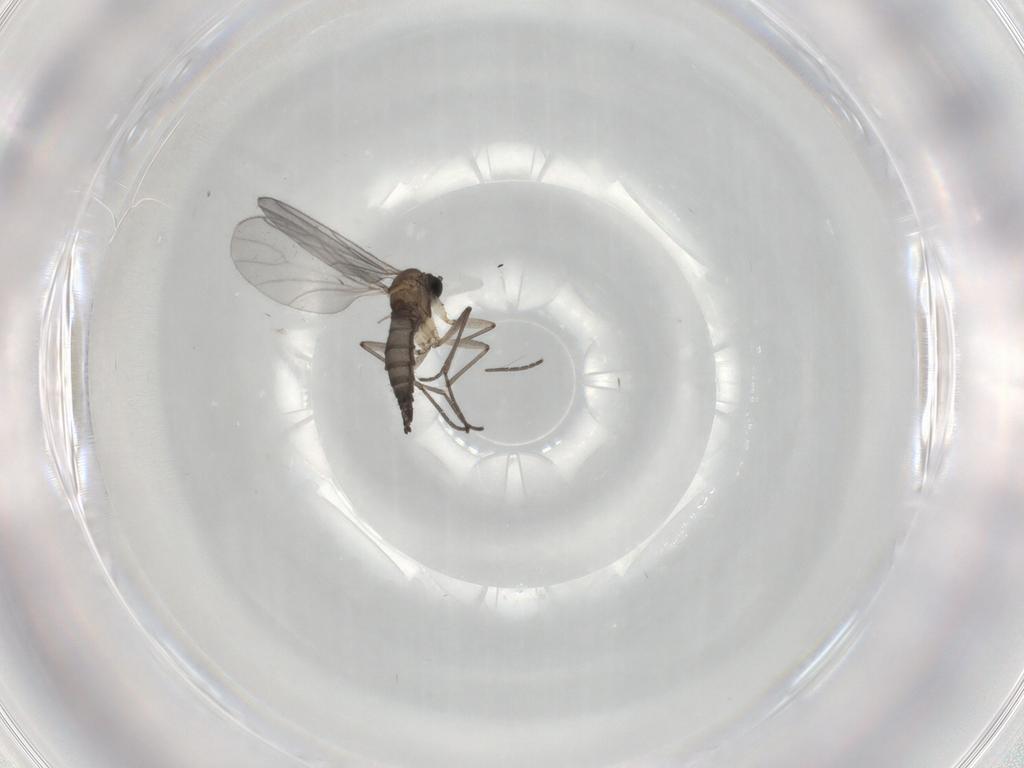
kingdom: Animalia
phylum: Arthropoda
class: Insecta
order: Diptera
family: Sciaridae
